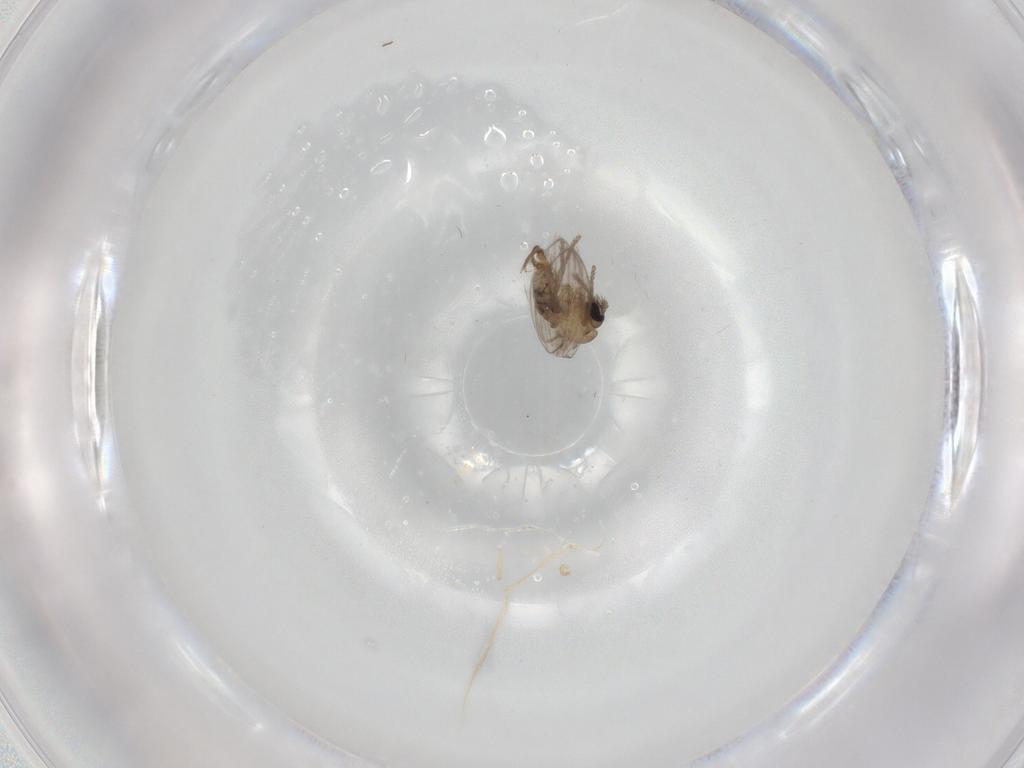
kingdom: Animalia
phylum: Arthropoda
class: Insecta
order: Diptera
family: Psychodidae
